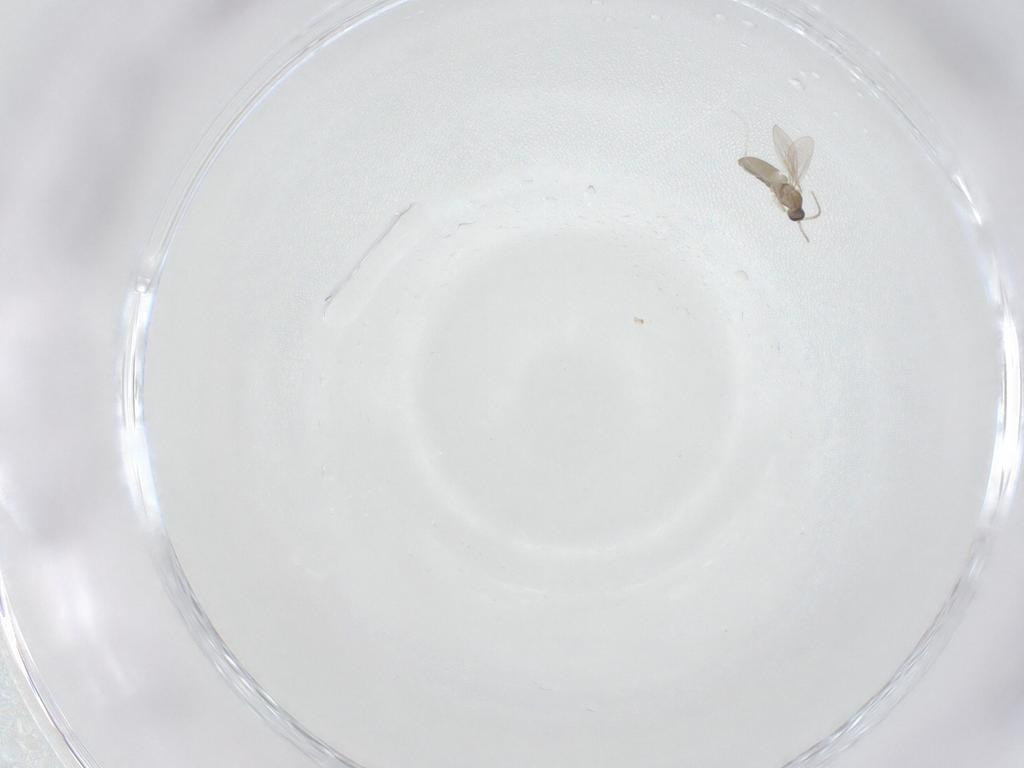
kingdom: Animalia
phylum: Arthropoda
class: Insecta
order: Diptera
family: Cecidomyiidae
